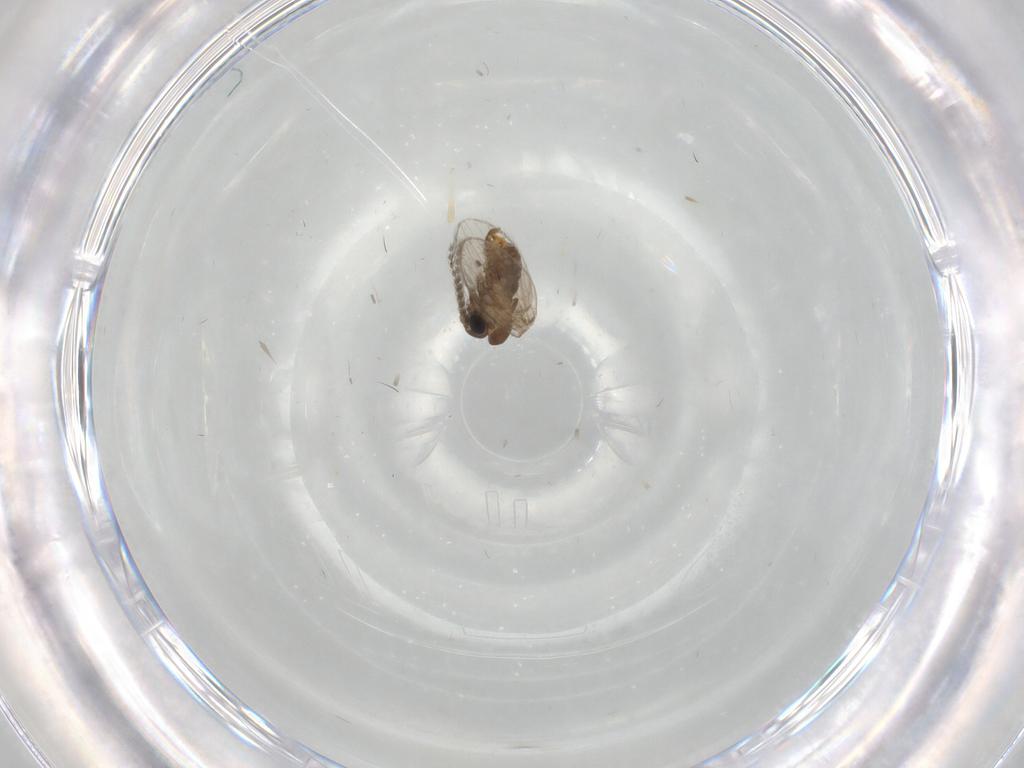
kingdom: Animalia
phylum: Arthropoda
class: Insecta
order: Diptera
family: Phoridae
